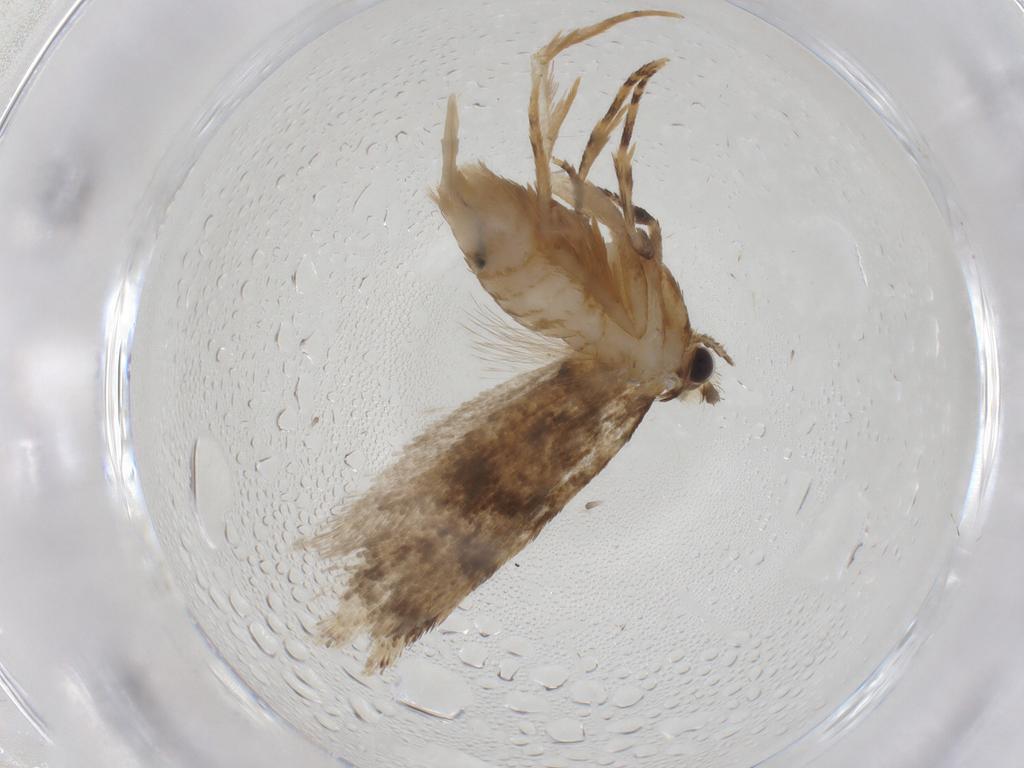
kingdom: Animalia
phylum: Arthropoda
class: Insecta
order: Lepidoptera
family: Tineidae
